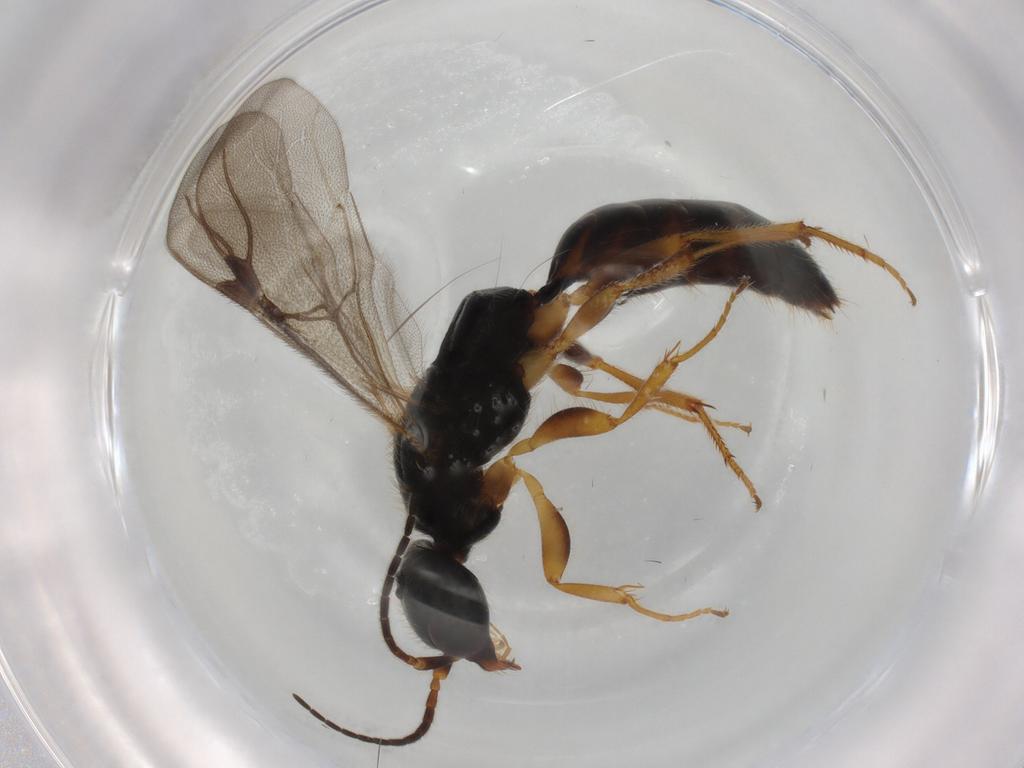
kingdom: Animalia
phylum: Arthropoda
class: Insecta
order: Hymenoptera
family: Bethylidae
